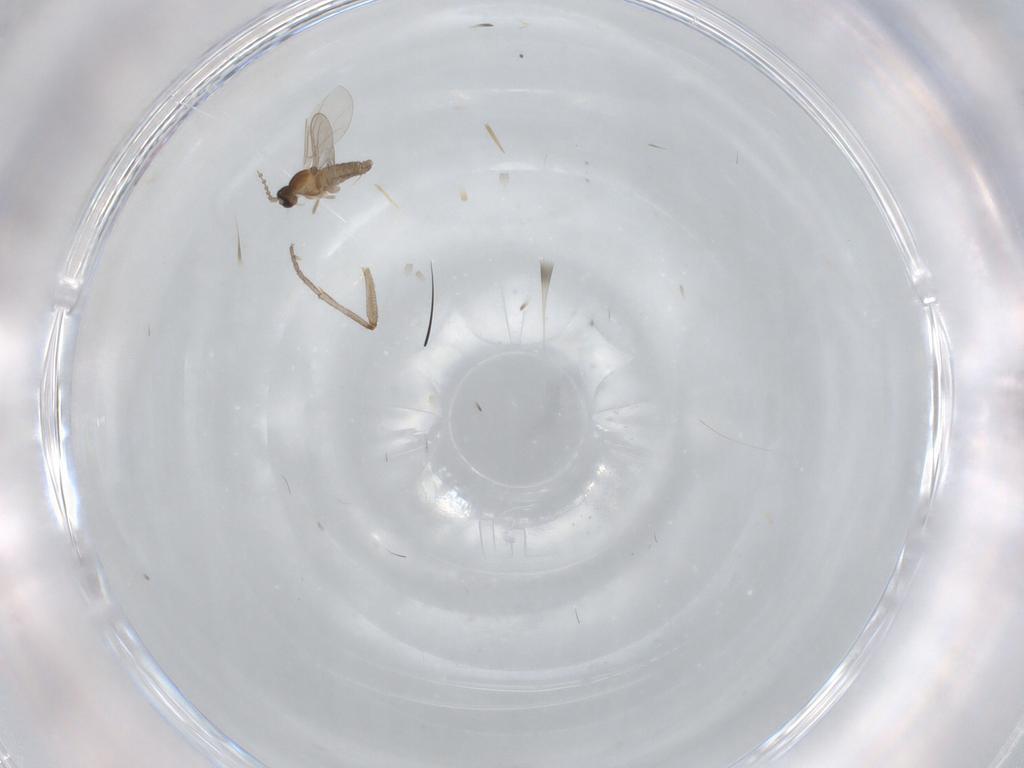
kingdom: Animalia
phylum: Arthropoda
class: Insecta
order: Diptera
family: Cecidomyiidae
